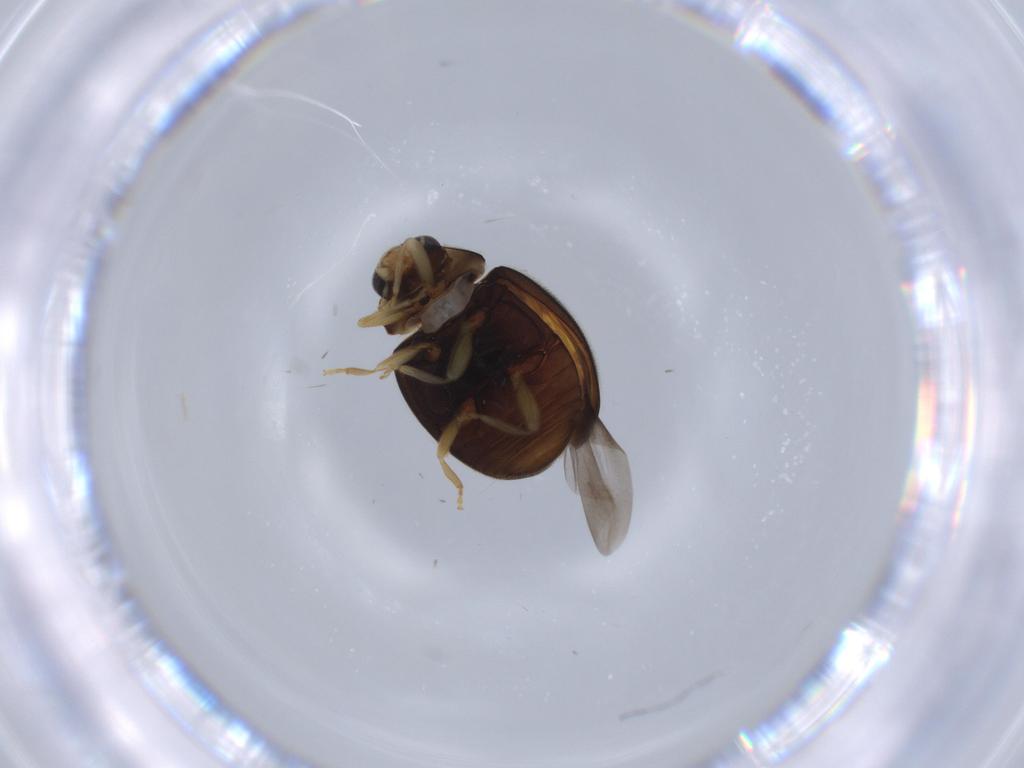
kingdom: Animalia
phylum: Arthropoda
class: Insecta
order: Coleoptera
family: Coccinellidae
